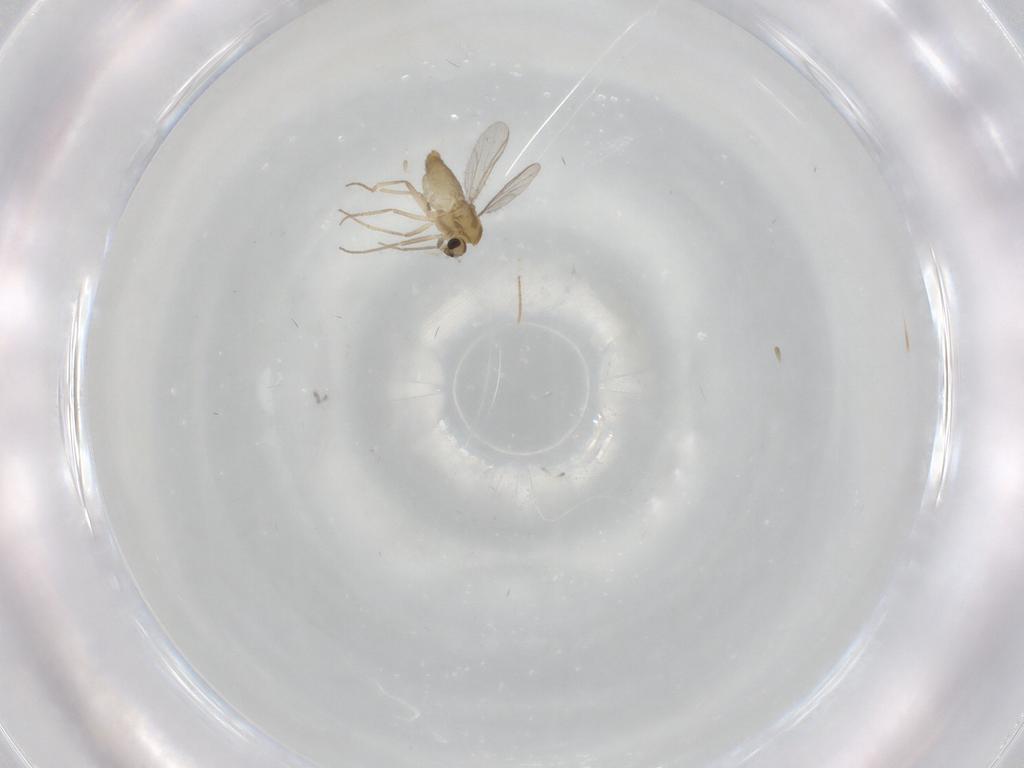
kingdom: Animalia
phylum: Arthropoda
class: Insecta
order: Diptera
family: Chironomidae
